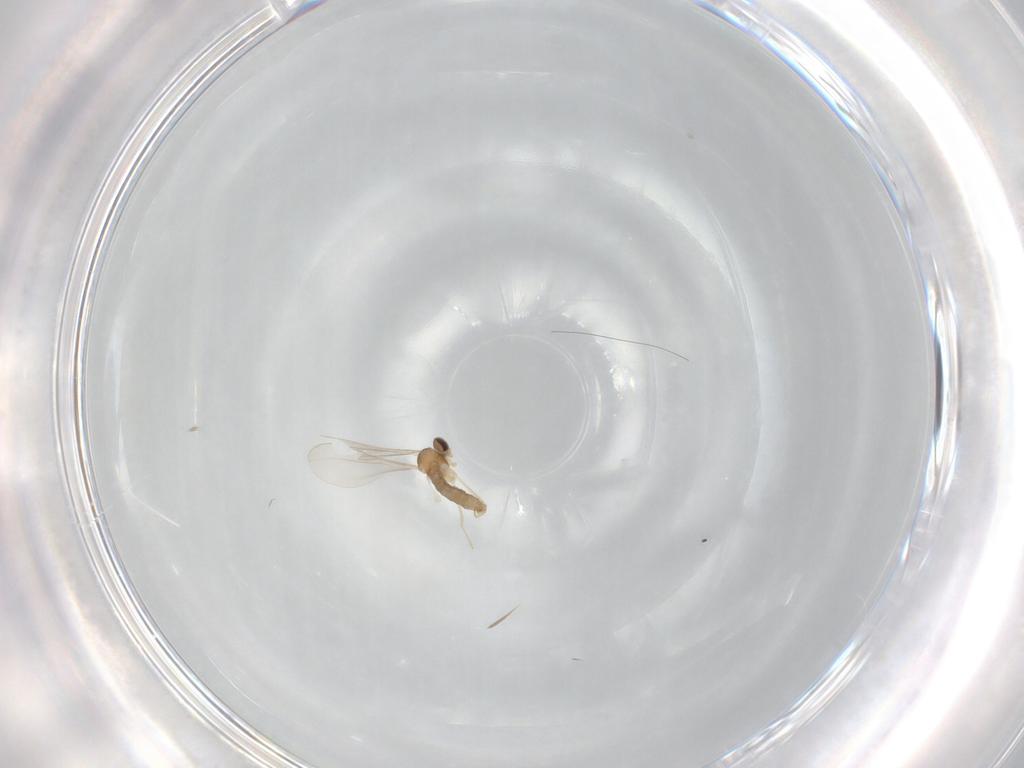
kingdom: Animalia
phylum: Arthropoda
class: Insecta
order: Diptera
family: Cecidomyiidae
